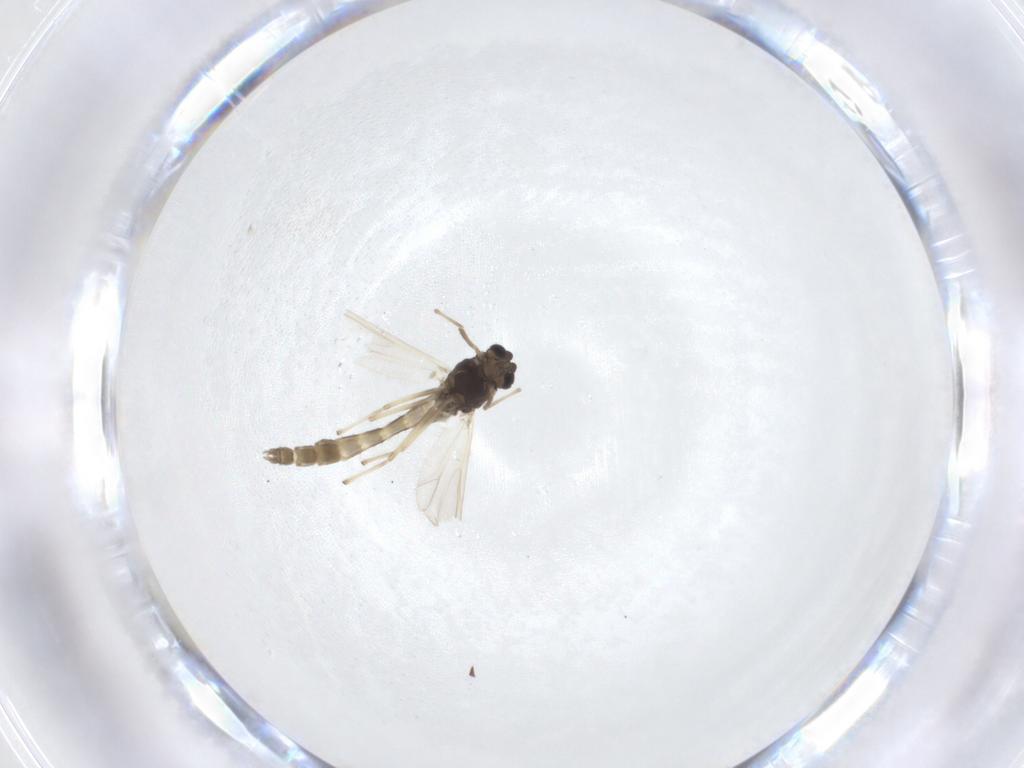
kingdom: Animalia
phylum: Arthropoda
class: Insecta
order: Diptera
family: Chironomidae
